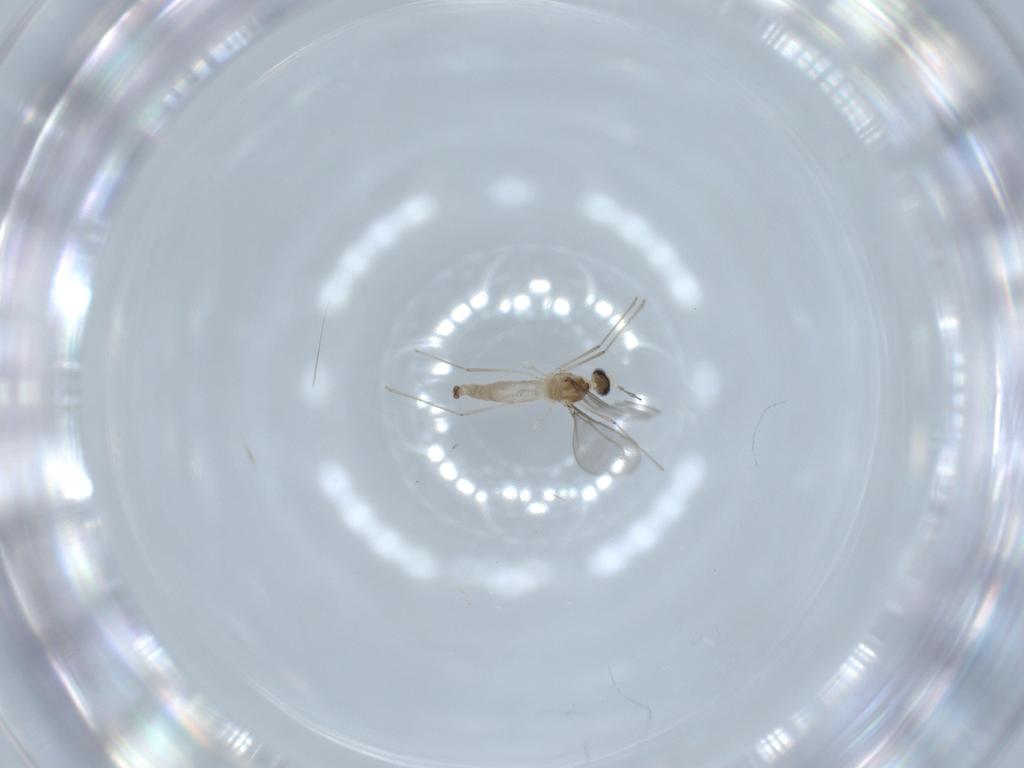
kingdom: Animalia
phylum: Arthropoda
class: Insecta
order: Diptera
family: Cecidomyiidae
